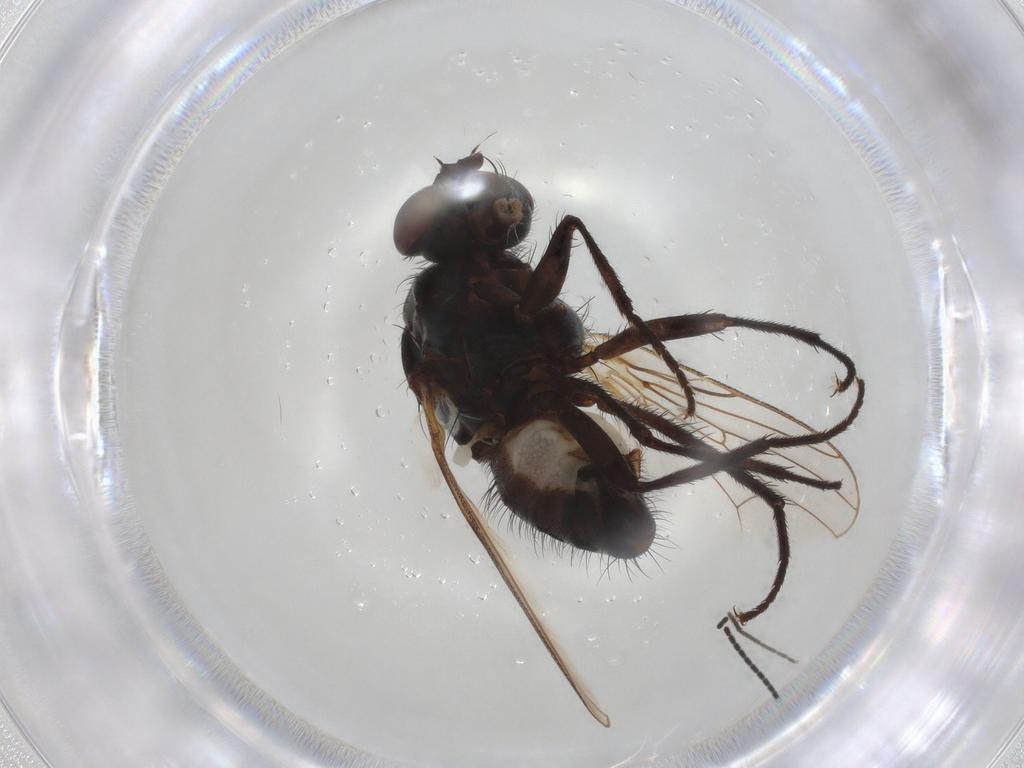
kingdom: Animalia
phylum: Arthropoda
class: Insecta
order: Diptera
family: Anthomyiidae
